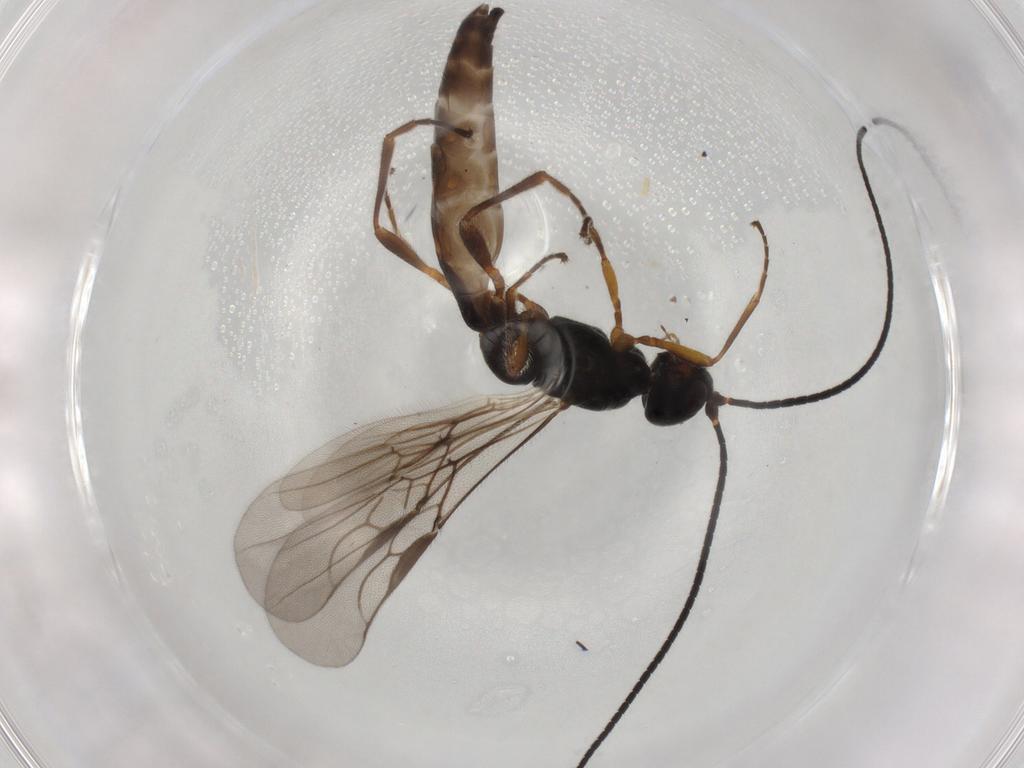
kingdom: Animalia
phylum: Arthropoda
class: Insecta
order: Hymenoptera
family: Braconidae
